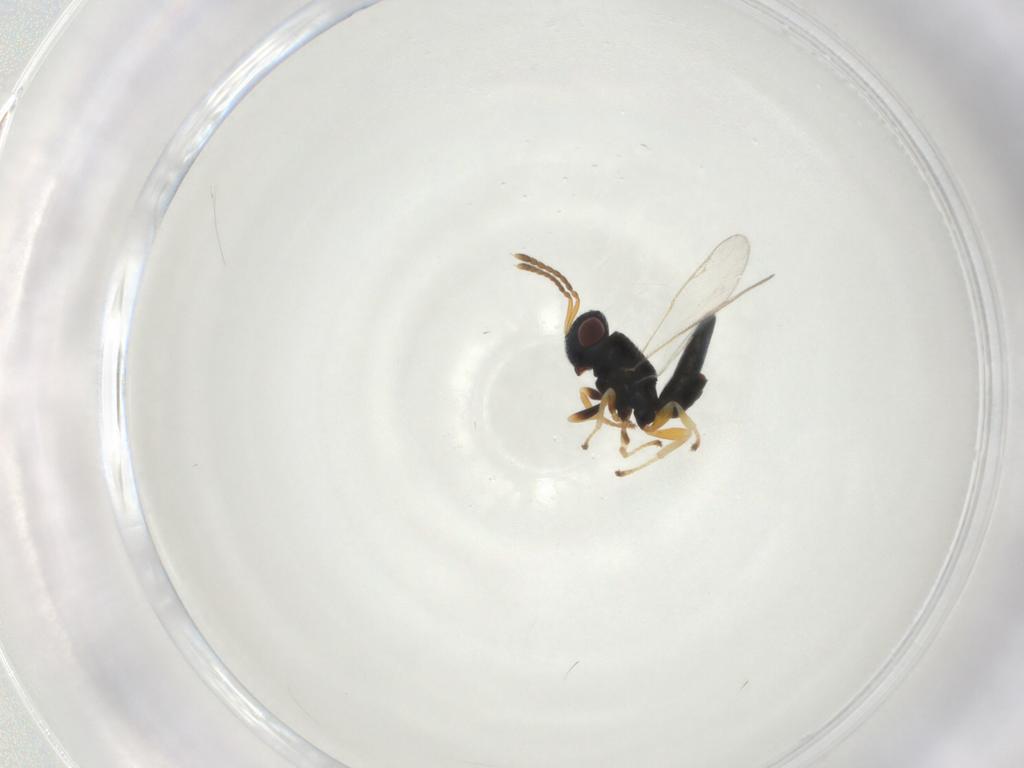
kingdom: Animalia
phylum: Arthropoda
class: Insecta
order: Hymenoptera
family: Pteromalidae
